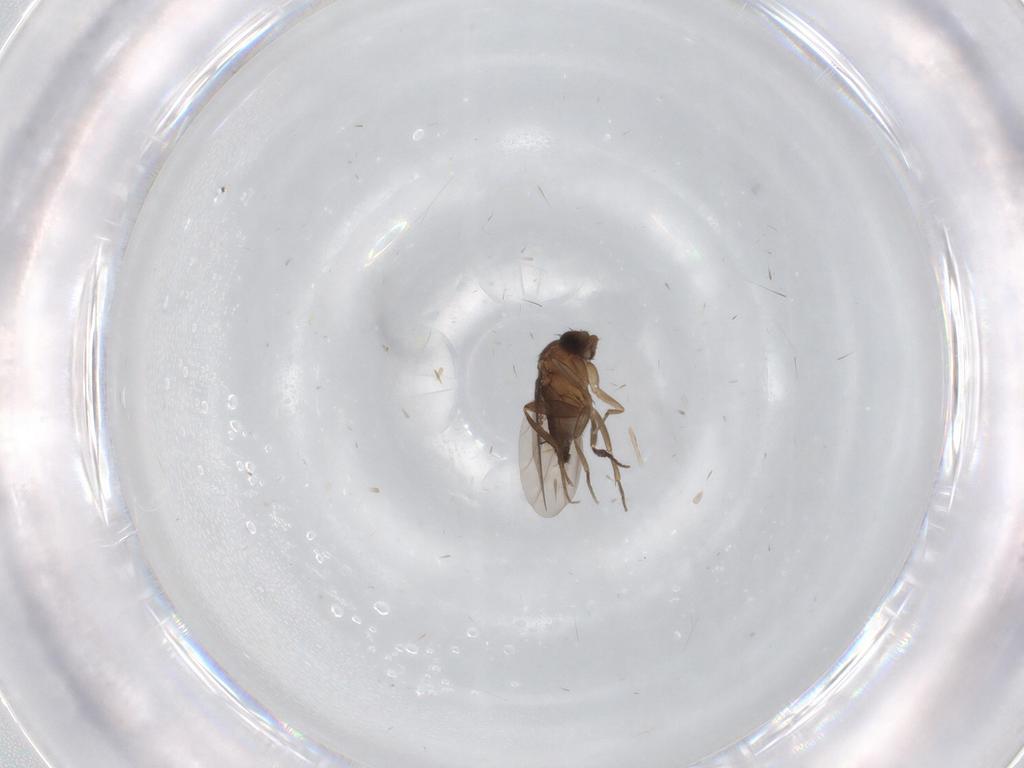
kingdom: Animalia
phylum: Arthropoda
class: Insecta
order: Diptera
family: Phoridae
